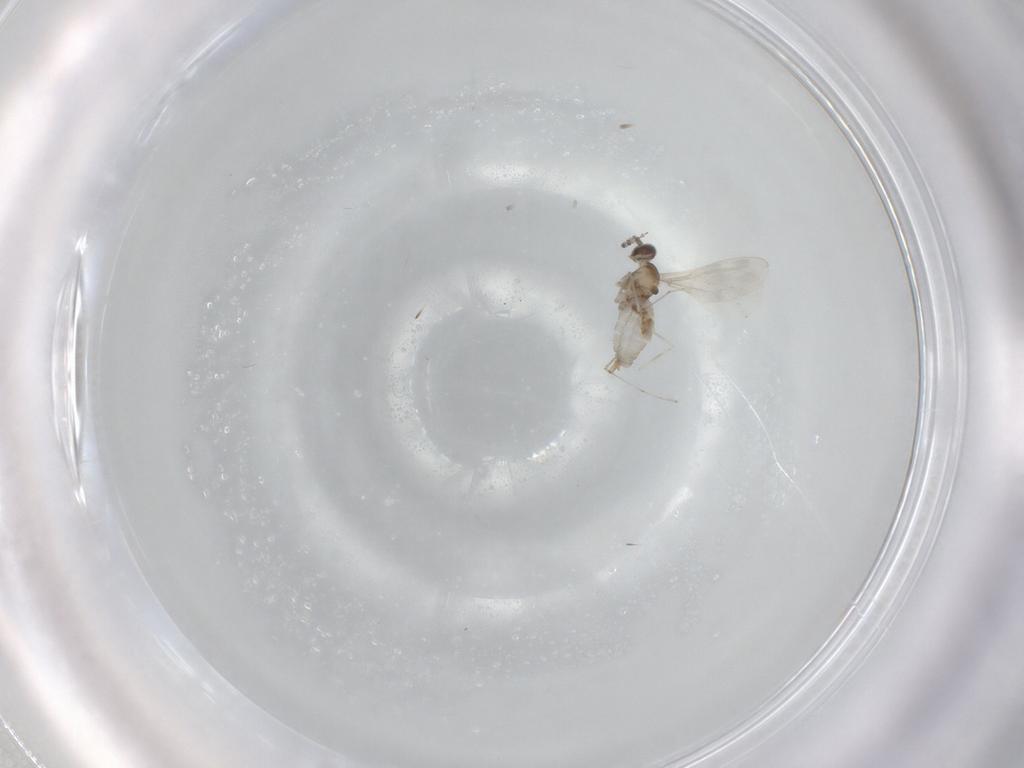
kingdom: Animalia
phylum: Arthropoda
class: Insecta
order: Diptera
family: Cecidomyiidae
